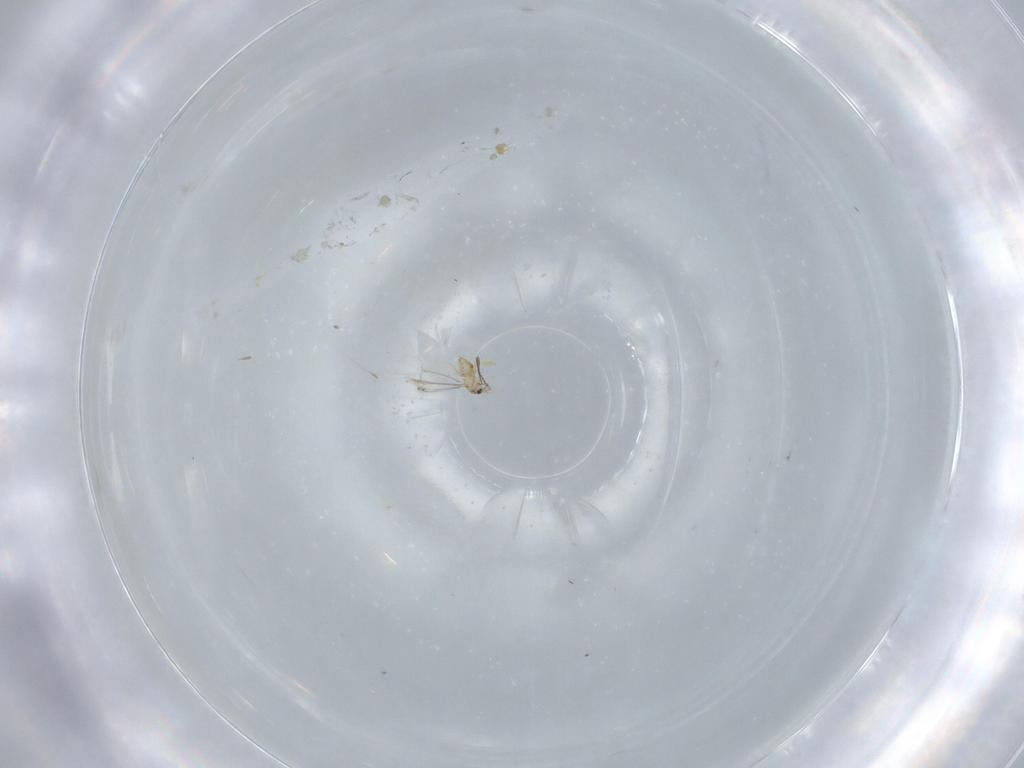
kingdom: Animalia
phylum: Arthropoda
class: Insecta
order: Hymenoptera
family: Mymaridae
